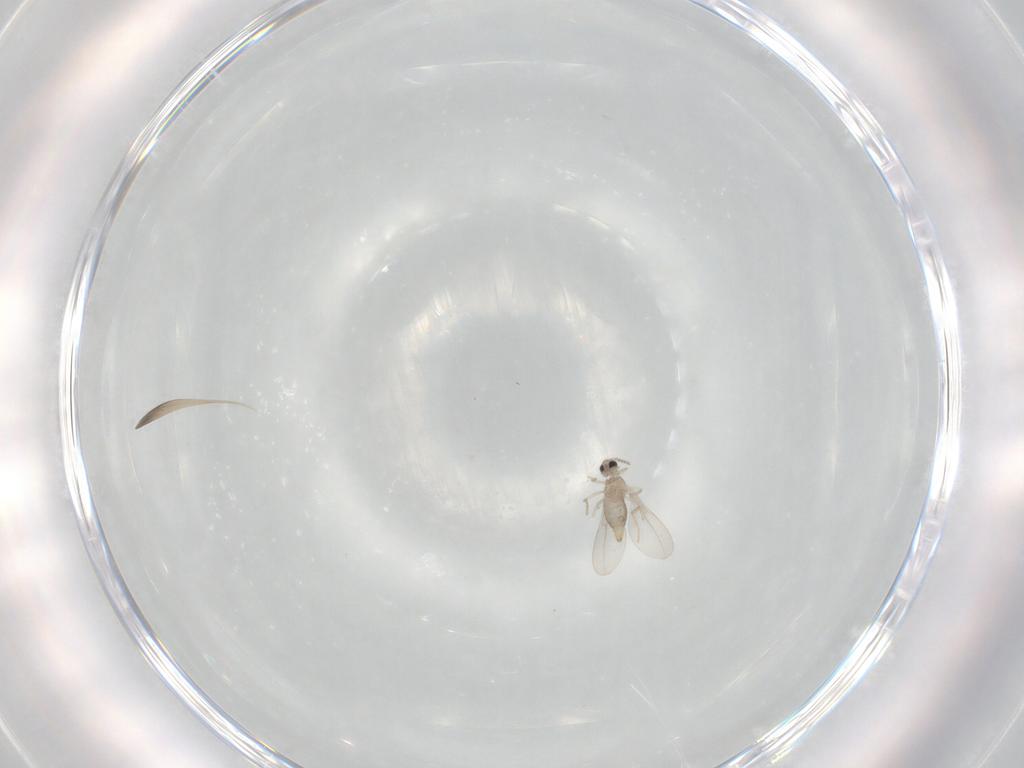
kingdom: Animalia
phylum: Arthropoda
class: Insecta
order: Diptera
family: Cecidomyiidae
